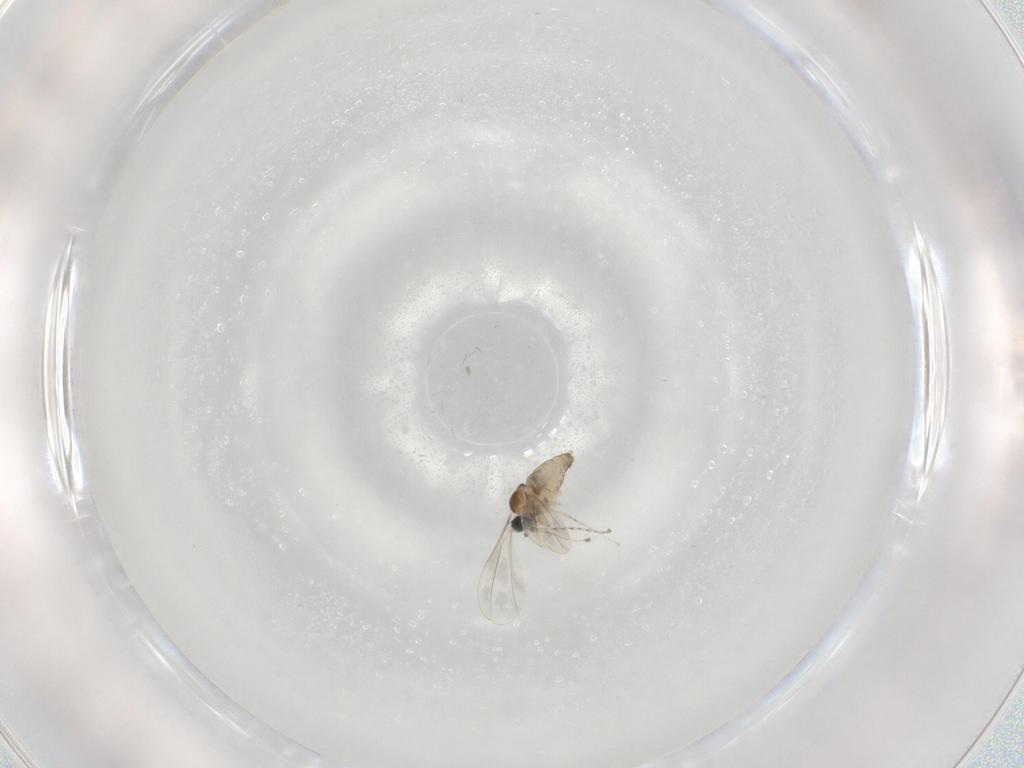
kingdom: Animalia
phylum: Arthropoda
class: Insecta
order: Diptera
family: Cecidomyiidae
